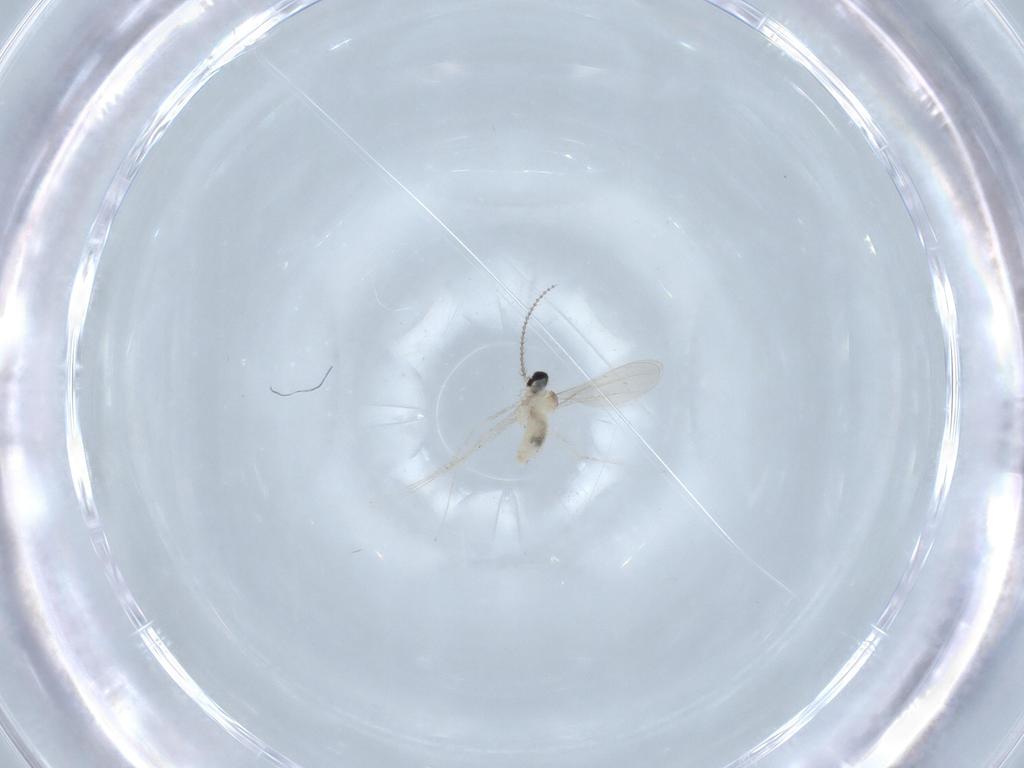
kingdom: Animalia
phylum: Arthropoda
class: Insecta
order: Diptera
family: Cecidomyiidae
